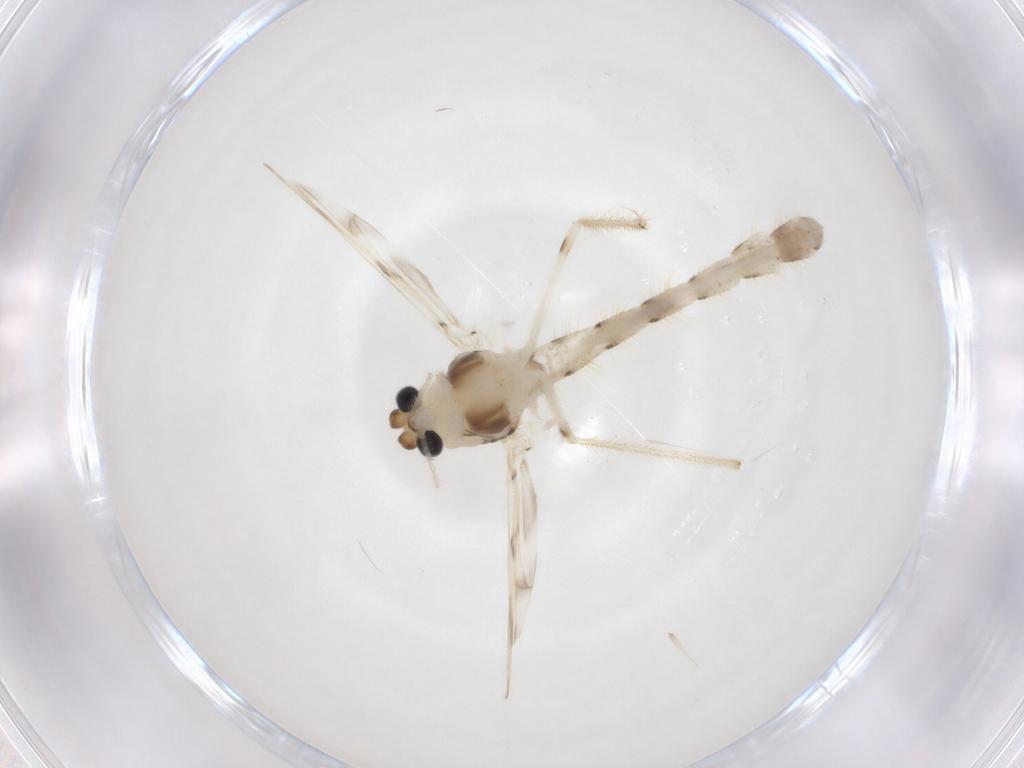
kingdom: Animalia
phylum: Arthropoda
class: Insecta
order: Diptera
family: Chironomidae
